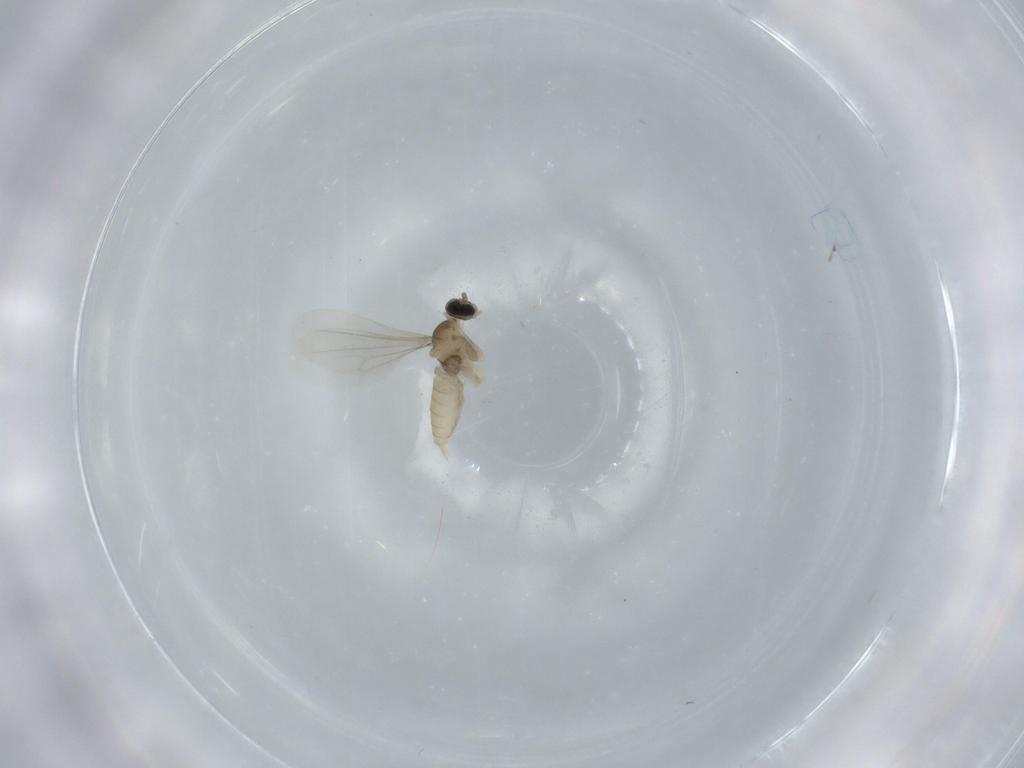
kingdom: Animalia
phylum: Arthropoda
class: Insecta
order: Diptera
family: Cecidomyiidae
